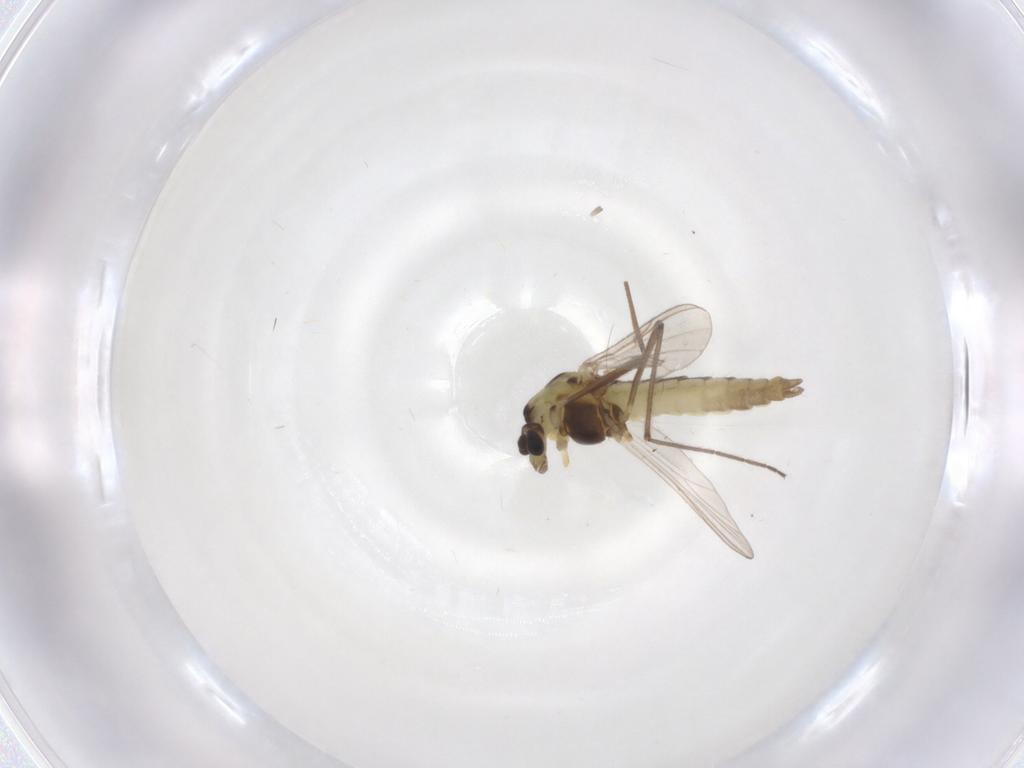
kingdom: Animalia
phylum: Arthropoda
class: Insecta
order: Diptera
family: Chironomidae
